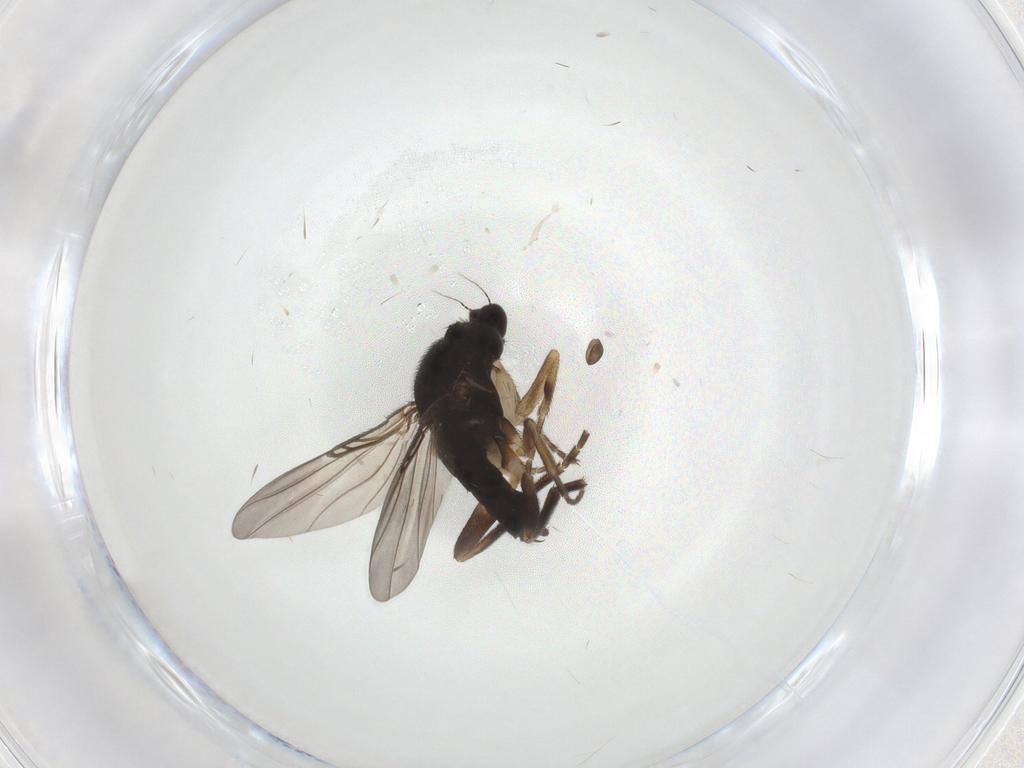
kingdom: Animalia
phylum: Arthropoda
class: Insecta
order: Diptera
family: Phoridae
